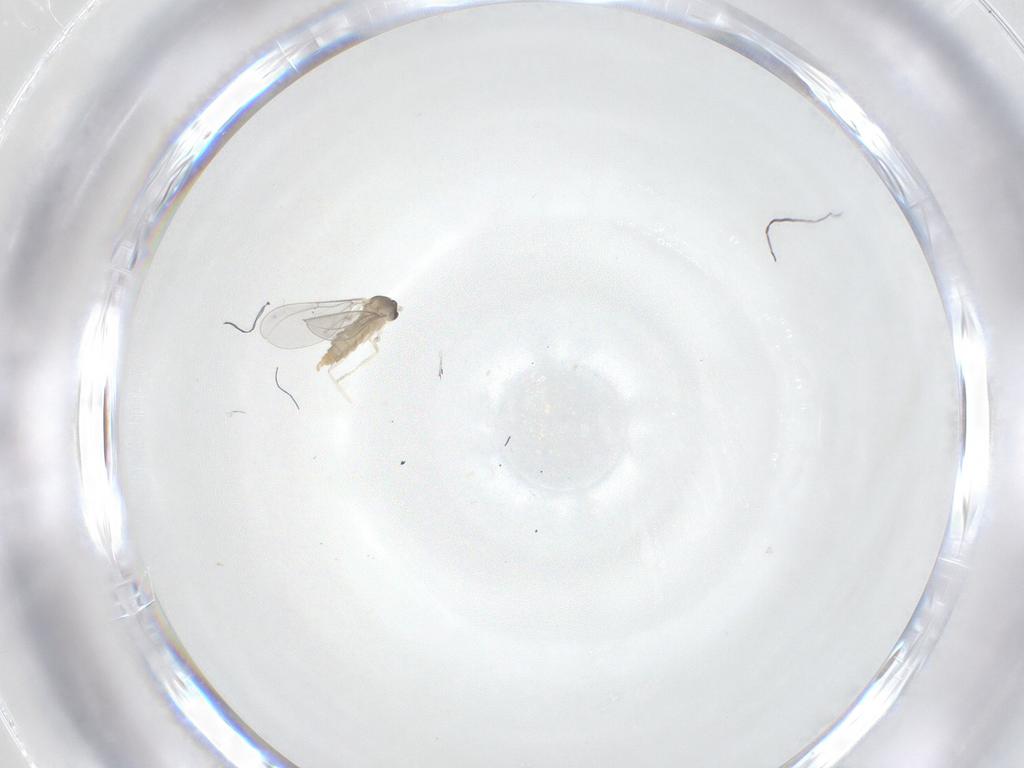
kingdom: Animalia
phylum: Arthropoda
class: Insecta
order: Diptera
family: Cecidomyiidae
